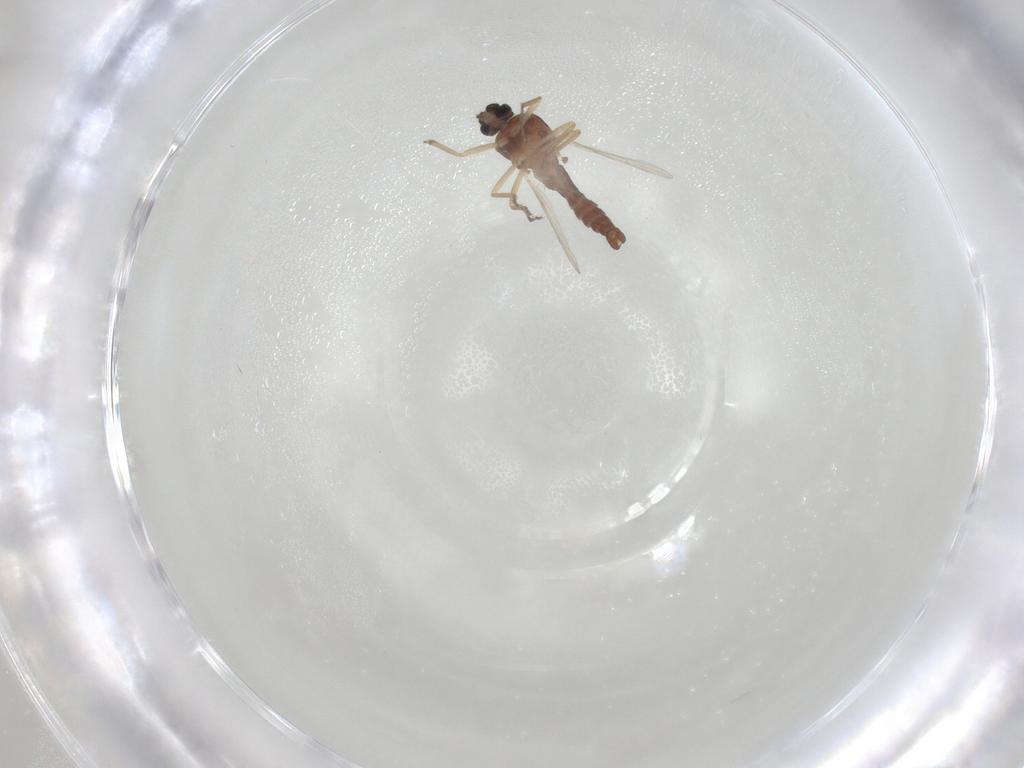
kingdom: Animalia
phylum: Arthropoda
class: Insecta
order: Diptera
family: Ceratopogonidae
